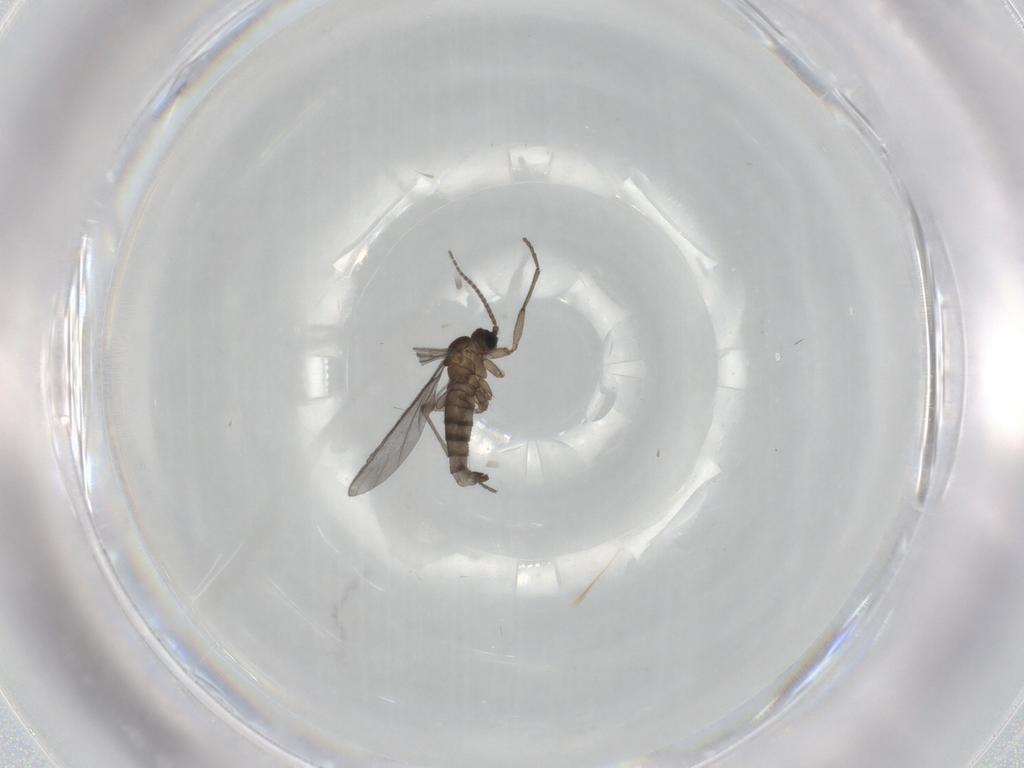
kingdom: Animalia
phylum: Arthropoda
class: Insecta
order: Diptera
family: Sciaridae
